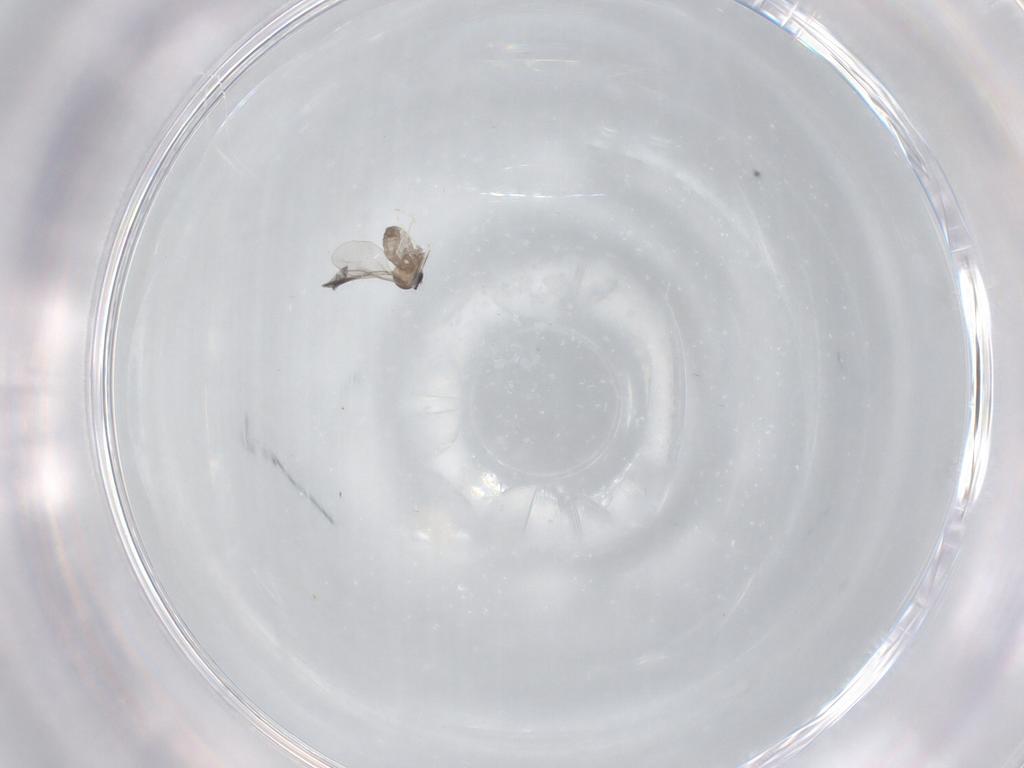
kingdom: Animalia
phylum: Arthropoda
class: Insecta
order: Diptera
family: Cecidomyiidae
